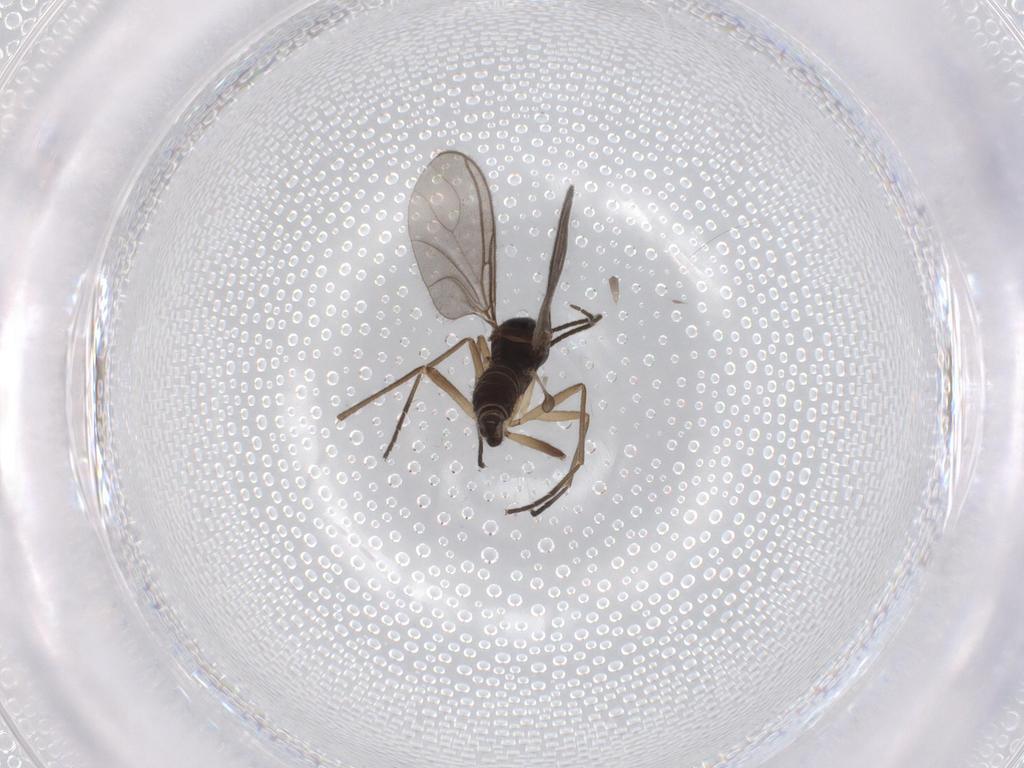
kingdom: Animalia
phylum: Arthropoda
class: Insecta
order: Diptera
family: Sciaridae
